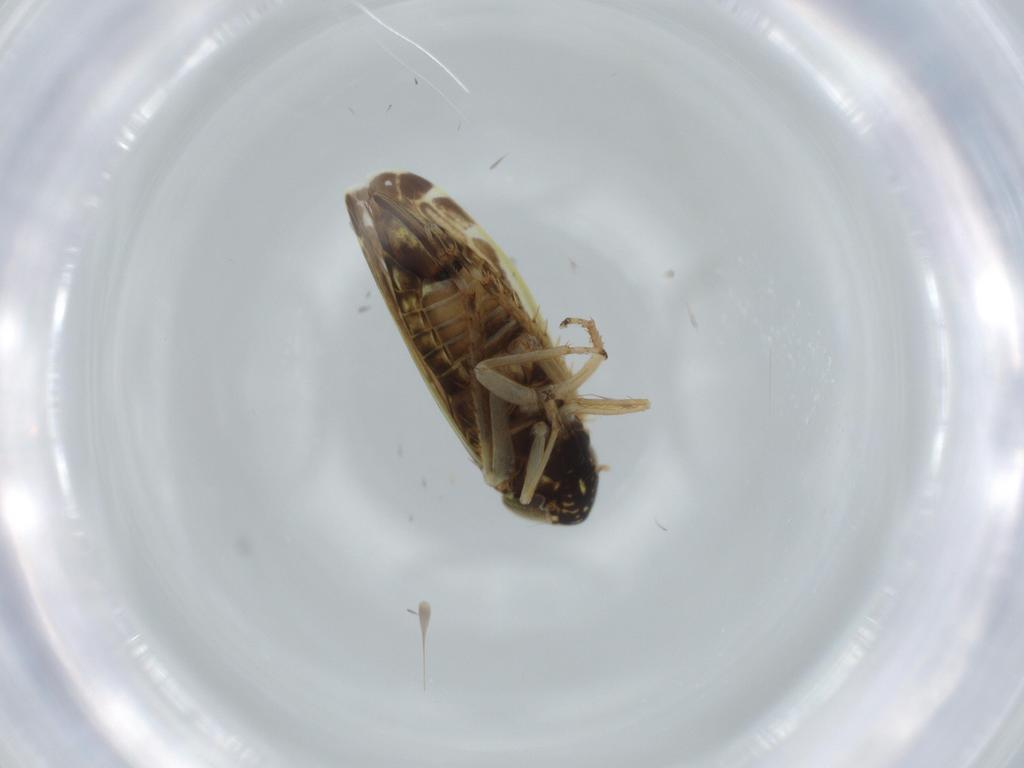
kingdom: Animalia
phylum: Arthropoda
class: Insecta
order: Hemiptera
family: Cicadellidae
